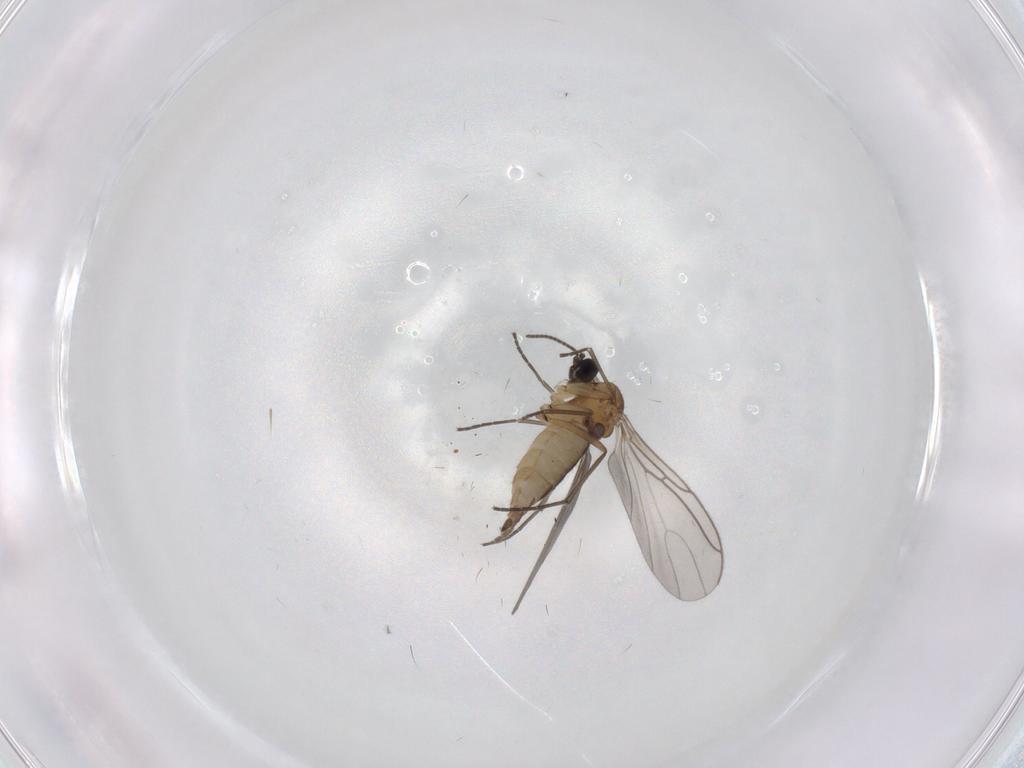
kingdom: Animalia
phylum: Arthropoda
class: Insecta
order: Diptera
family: Sciaridae
